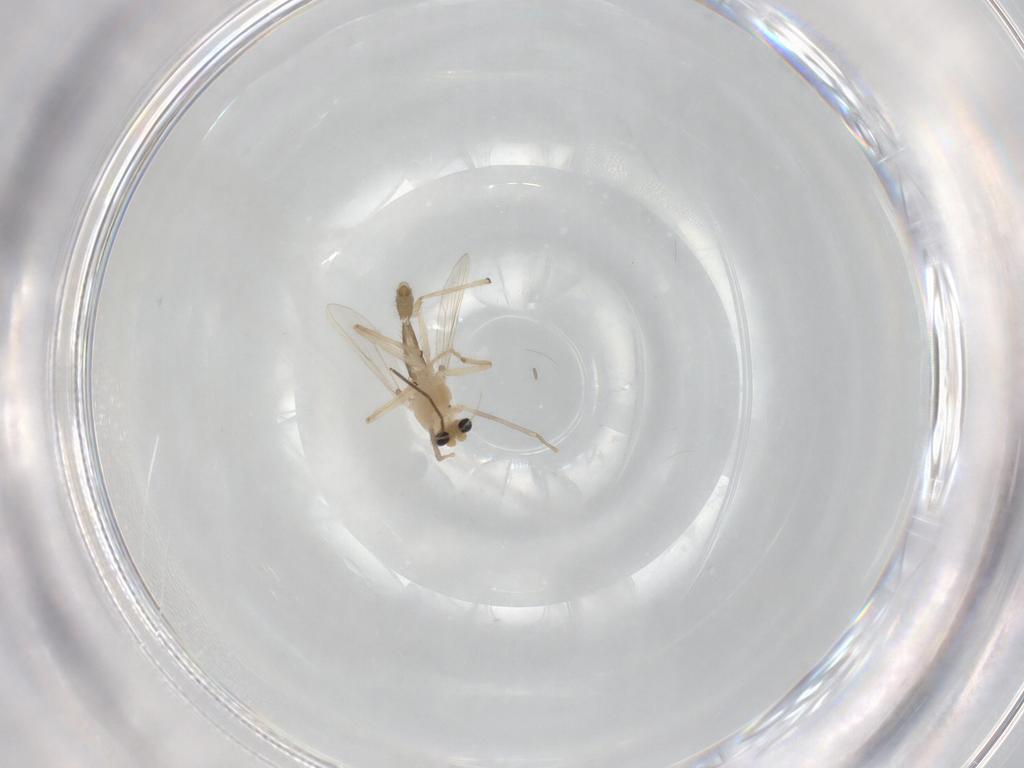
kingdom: Animalia
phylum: Arthropoda
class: Insecta
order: Diptera
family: Chironomidae
